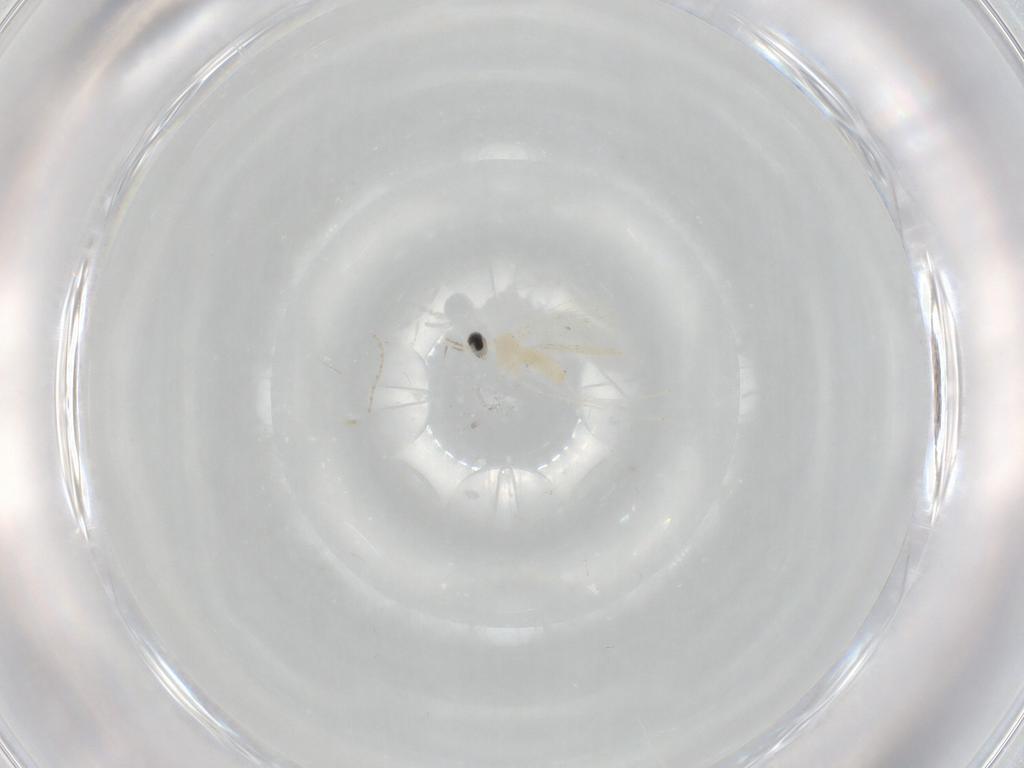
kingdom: Animalia
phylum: Arthropoda
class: Insecta
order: Diptera
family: Cecidomyiidae
